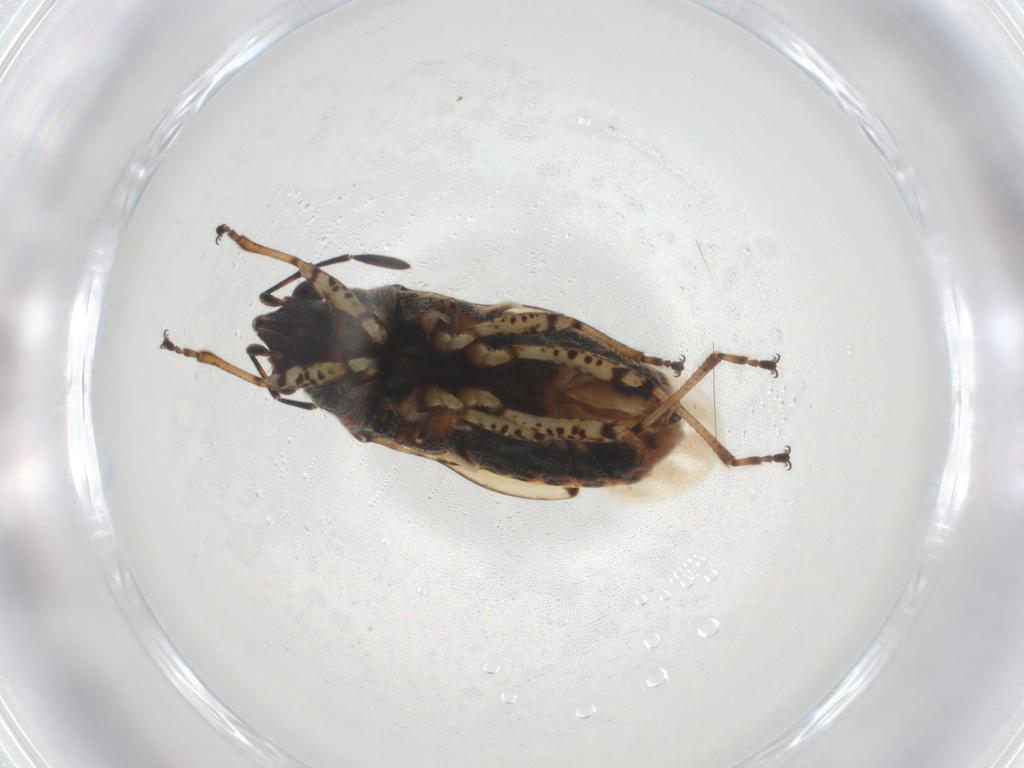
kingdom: Animalia
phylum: Arthropoda
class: Insecta
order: Hemiptera
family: Lygaeidae
